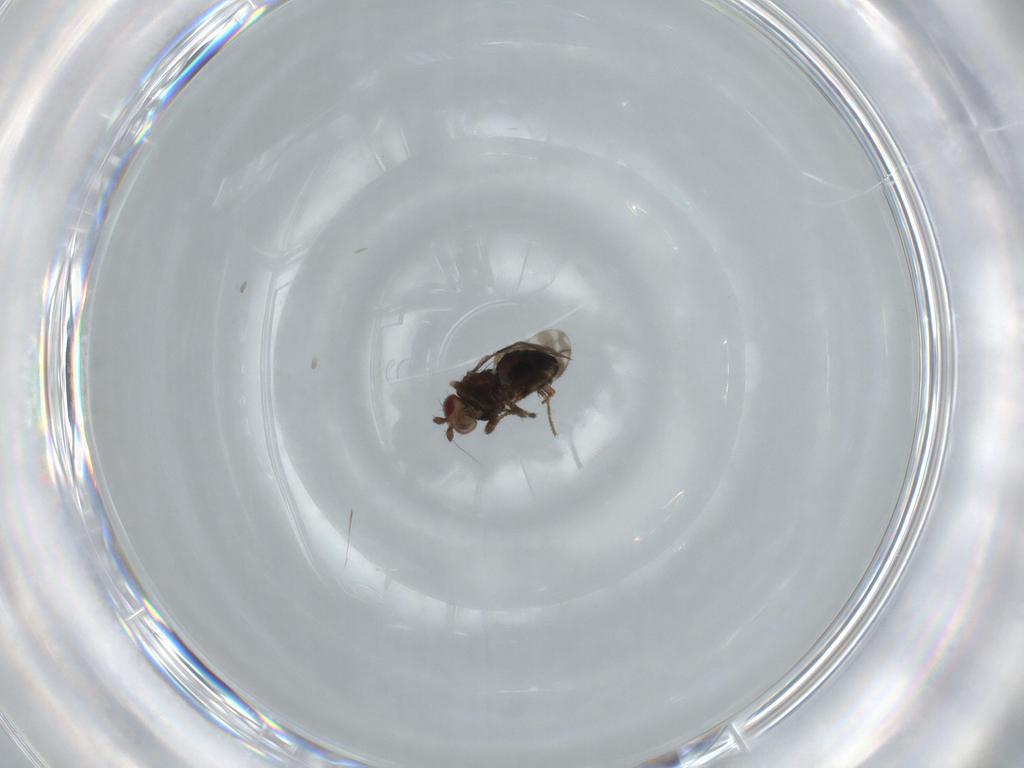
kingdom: Animalia
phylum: Arthropoda
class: Insecta
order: Diptera
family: Sphaeroceridae
